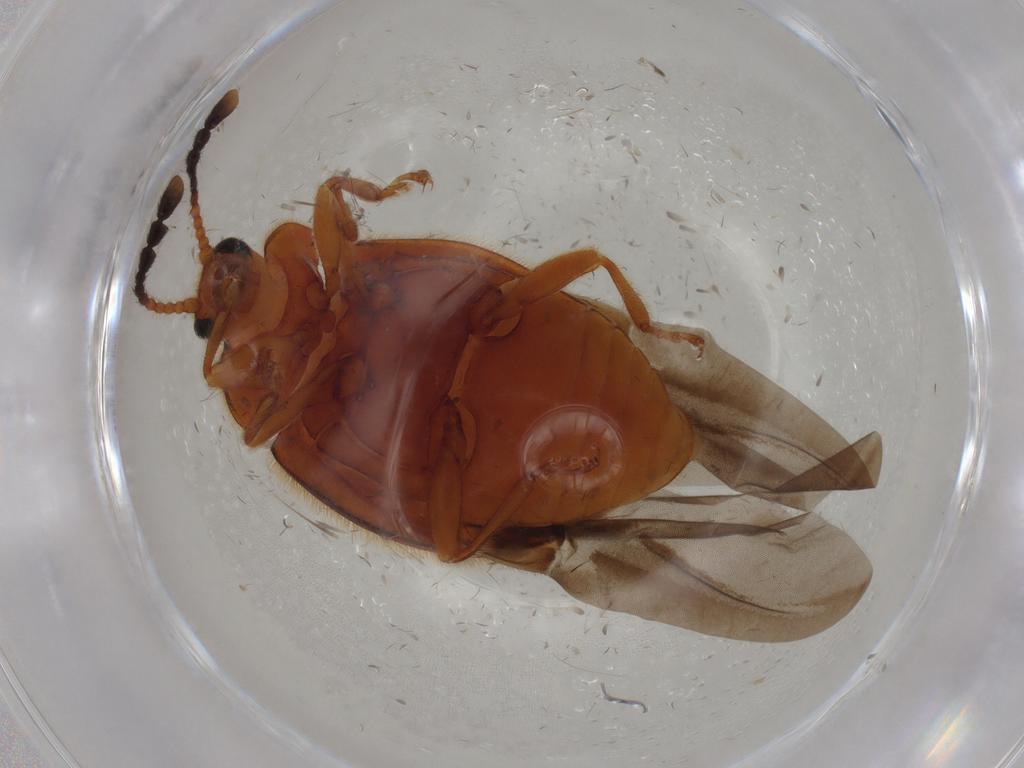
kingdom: Animalia
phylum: Arthropoda
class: Insecta
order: Coleoptera
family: Endomychidae
